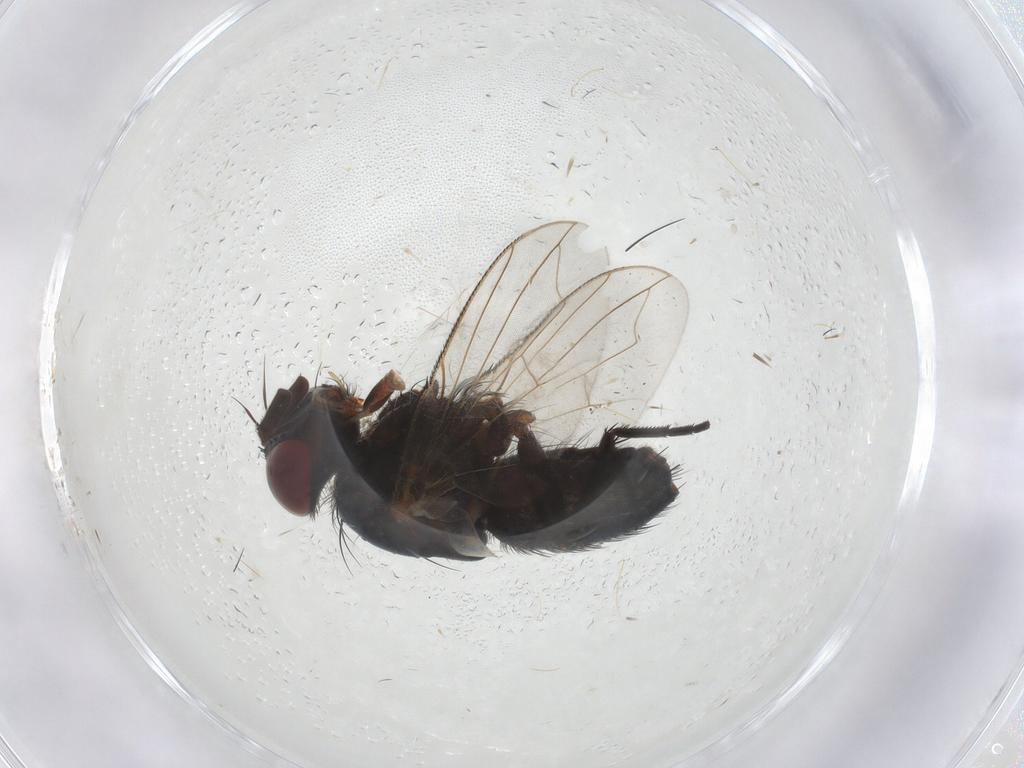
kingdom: Animalia
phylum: Arthropoda
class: Insecta
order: Diptera
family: Tachinidae
